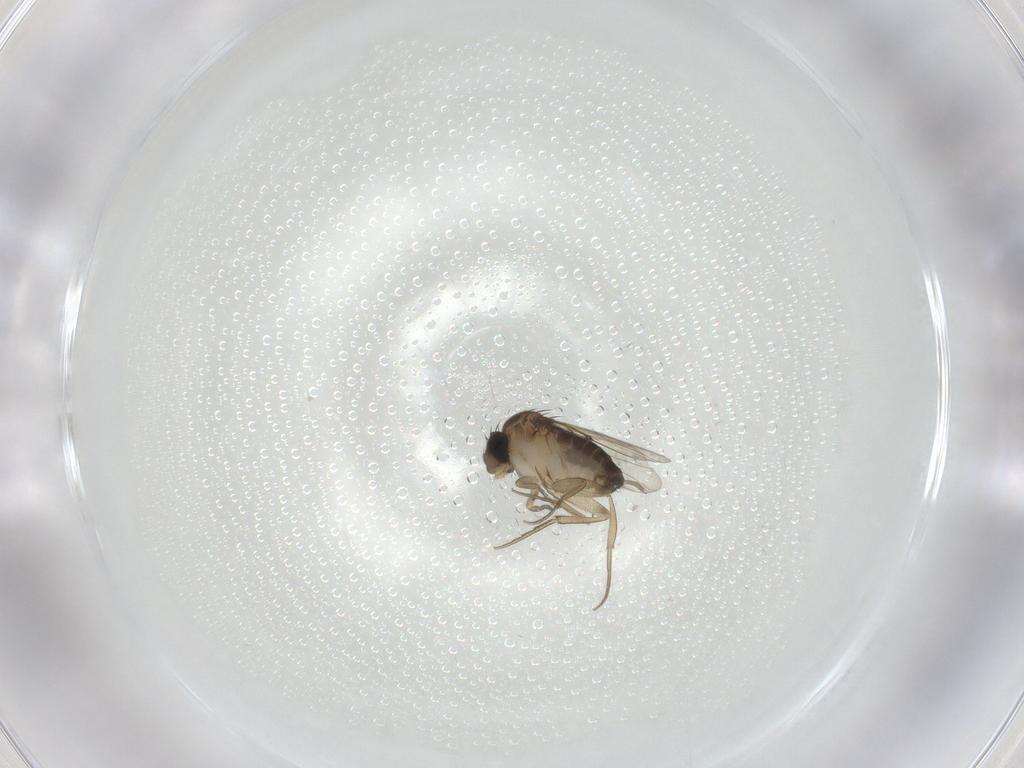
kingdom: Animalia
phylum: Arthropoda
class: Insecta
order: Diptera
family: Phoridae
